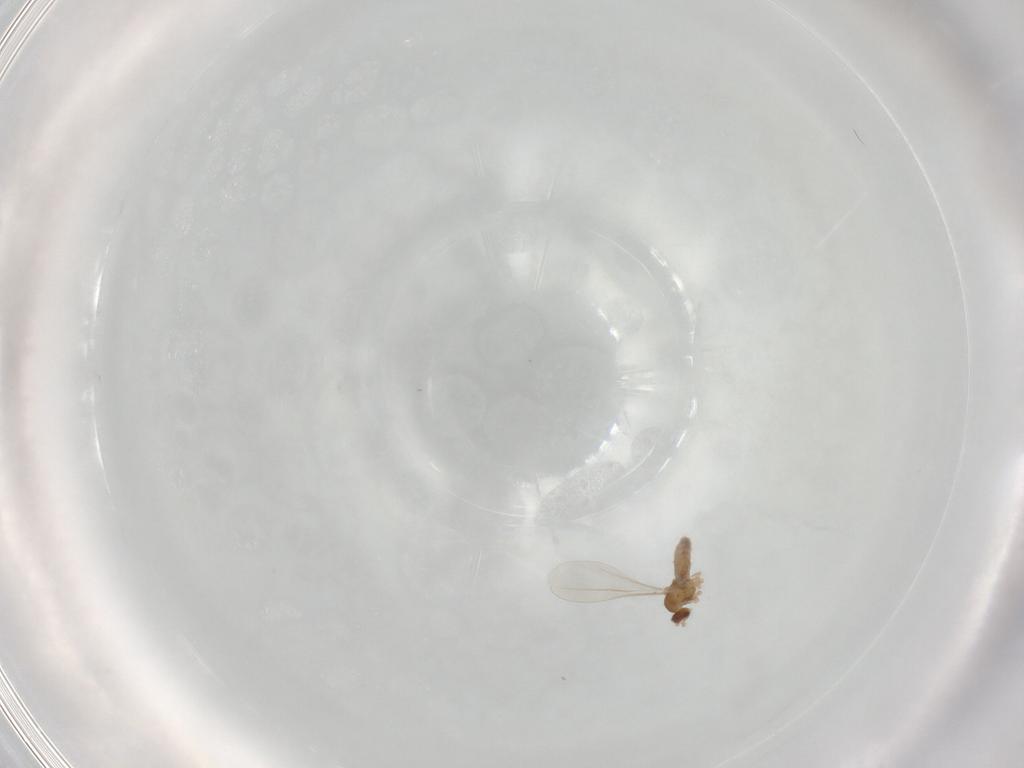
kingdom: Animalia
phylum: Arthropoda
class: Insecta
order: Diptera
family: Cecidomyiidae
